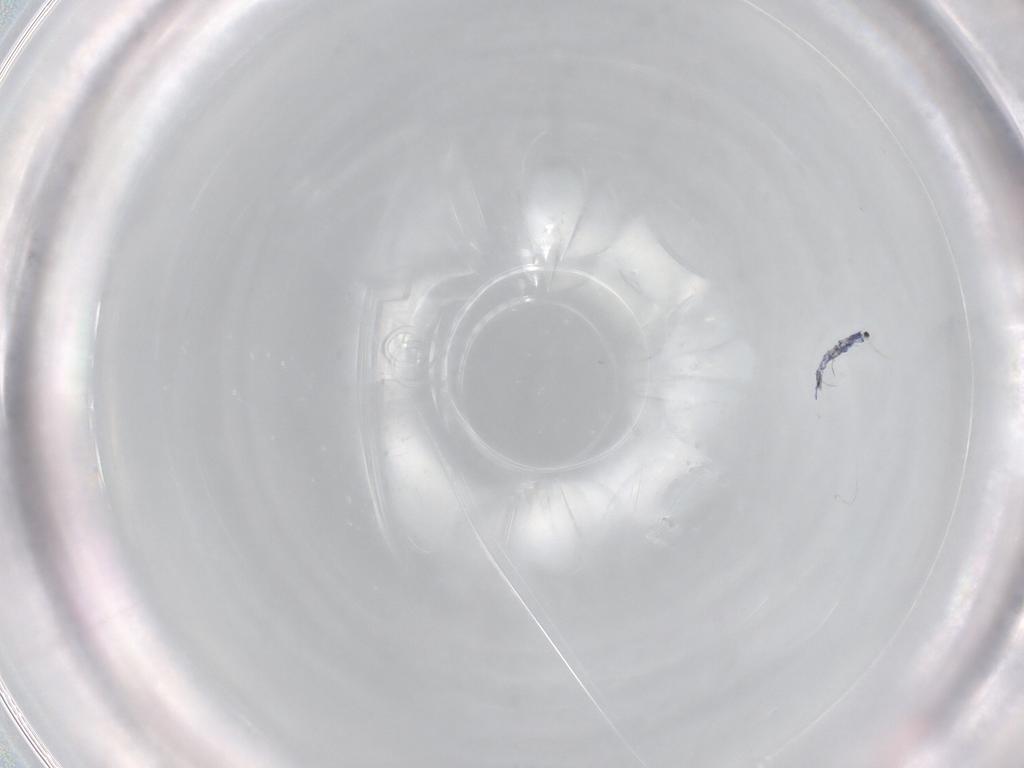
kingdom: Animalia
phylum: Arthropoda
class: Collembola
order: Entomobryomorpha
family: Entomobryidae
